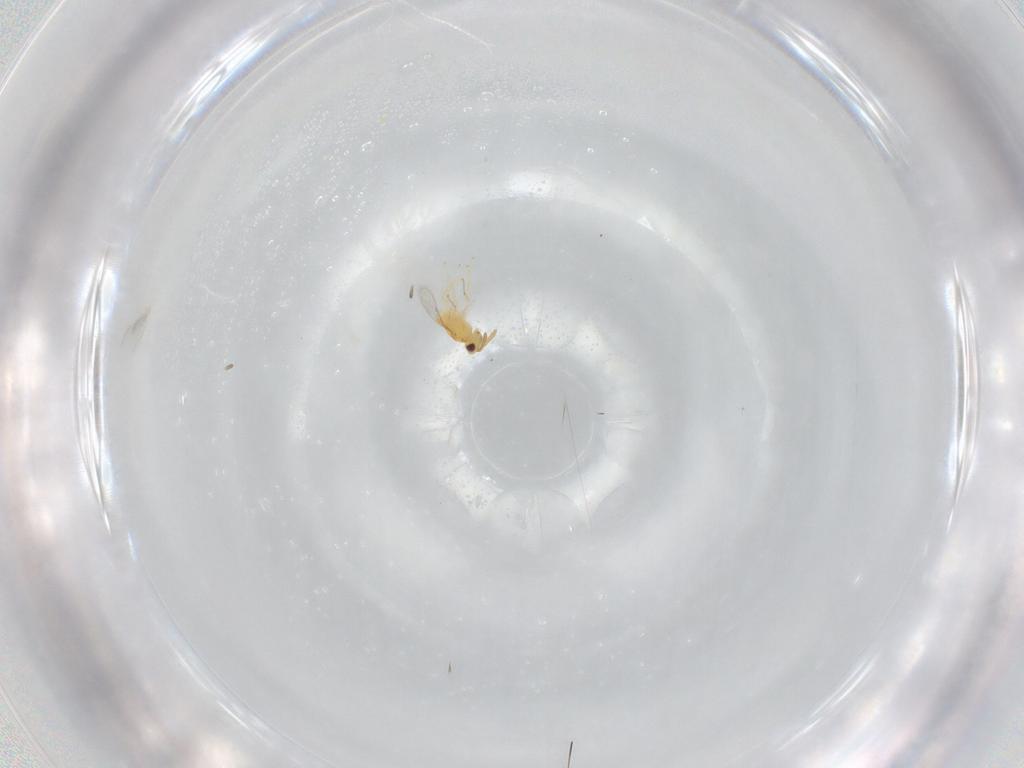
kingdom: Animalia
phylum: Arthropoda
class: Insecta
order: Hymenoptera
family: Aphelinidae
